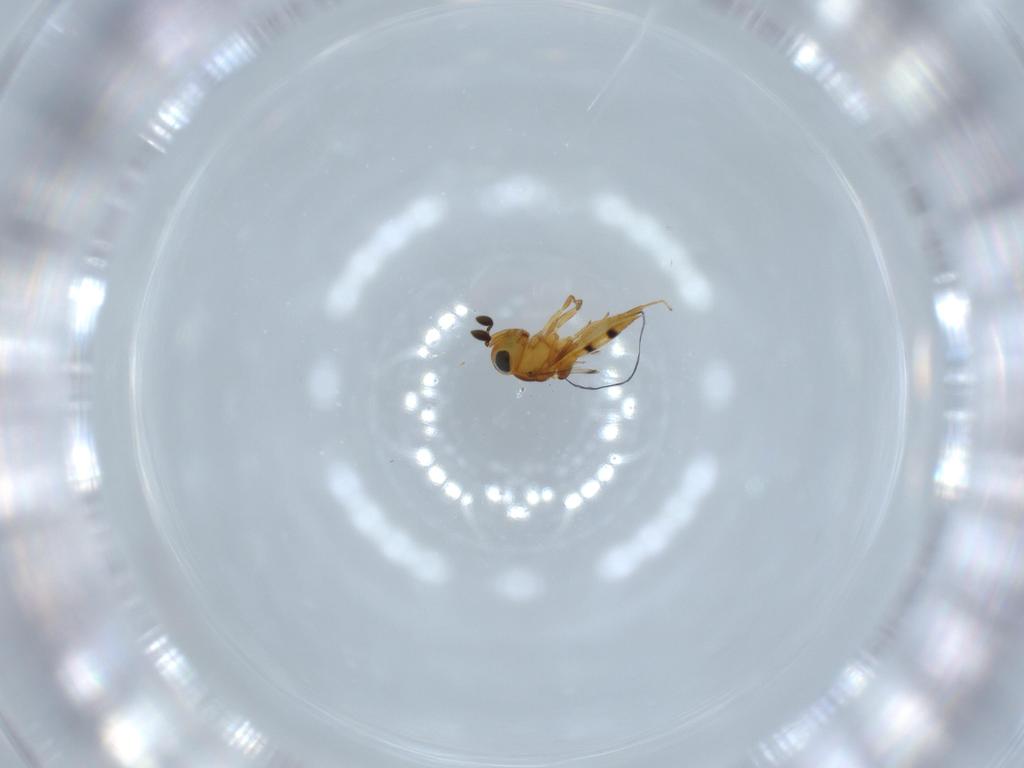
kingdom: Animalia
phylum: Arthropoda
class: Insecta
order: Hymenoptera
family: Scelionidae
